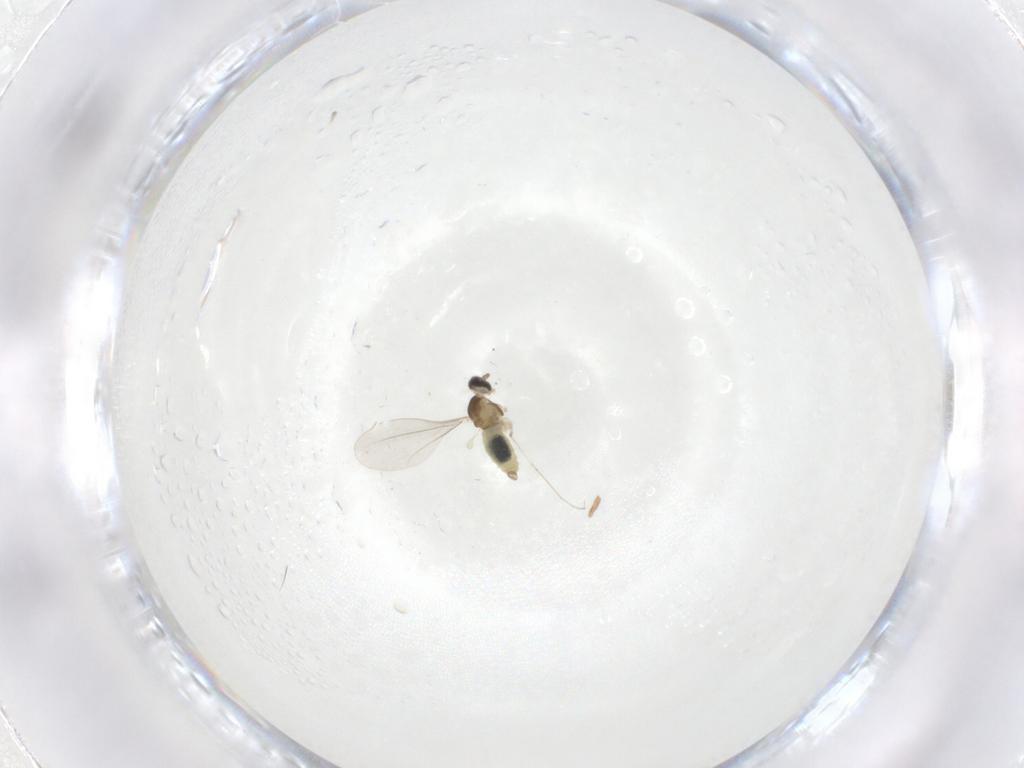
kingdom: Animalia
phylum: Arthropoda
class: Insecta
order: Diptera
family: Cecidomyiidae
